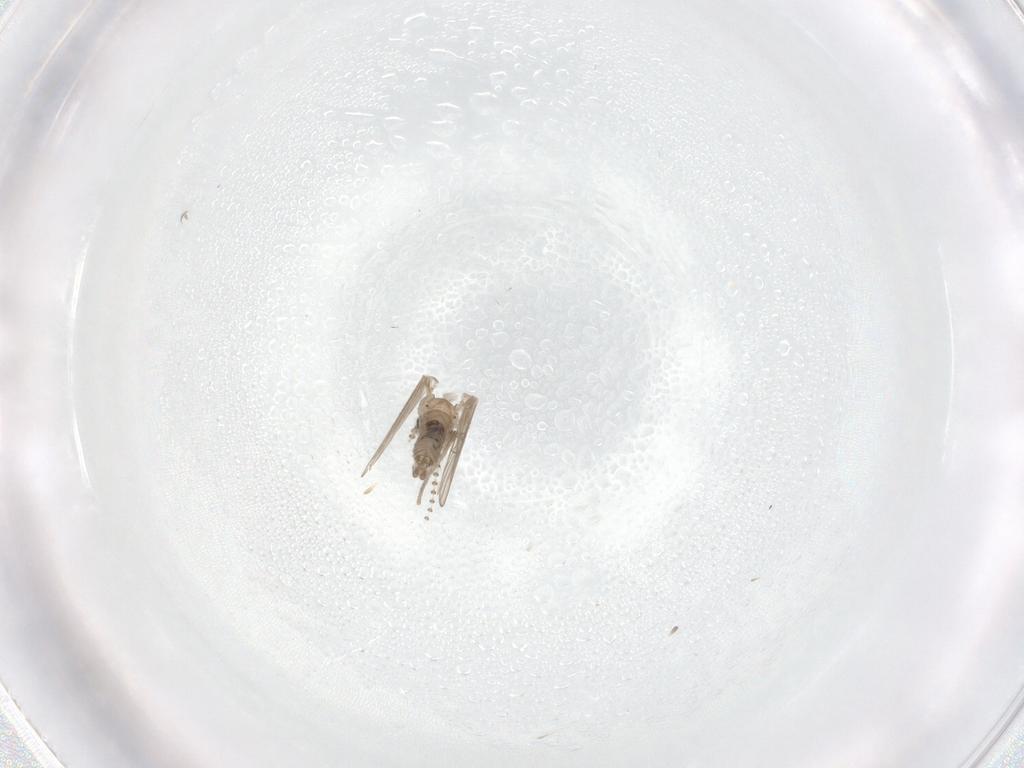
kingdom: Animalia
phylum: Arthropoda
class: Insecta
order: Diptera
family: Psychodidae
